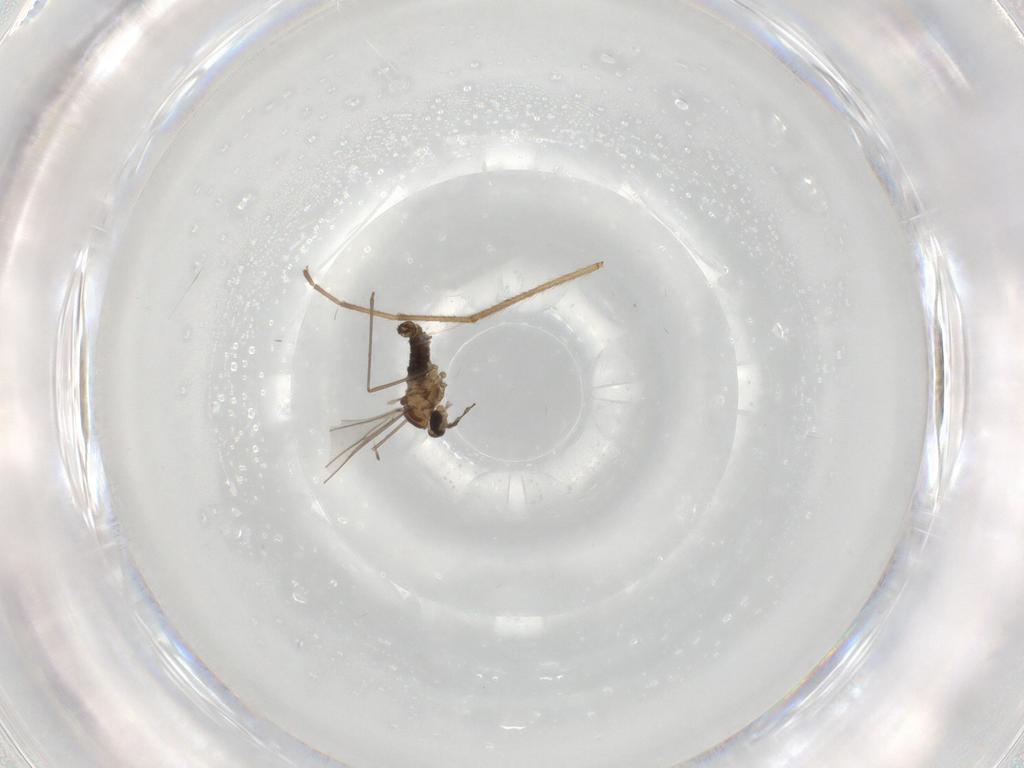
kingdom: Animalia
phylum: Arthropoda
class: Insecta
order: Diptera
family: Cecidomyiidae
